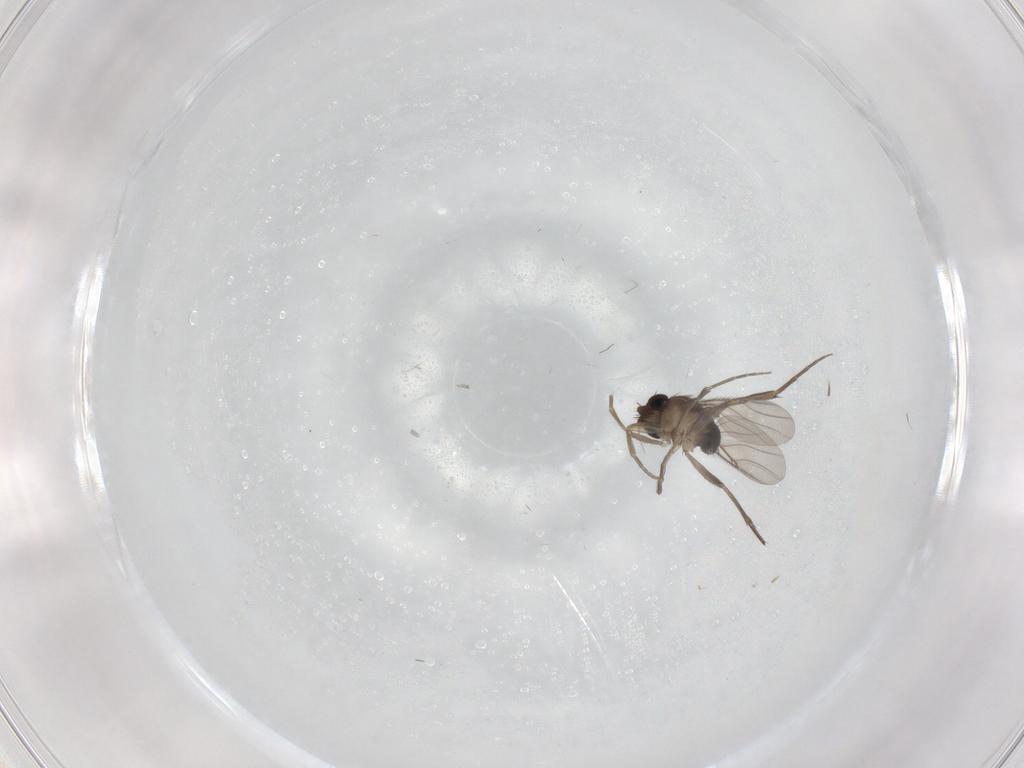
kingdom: Animalia
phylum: Arthropoda
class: Insecta
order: Diptera
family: Phoridae
